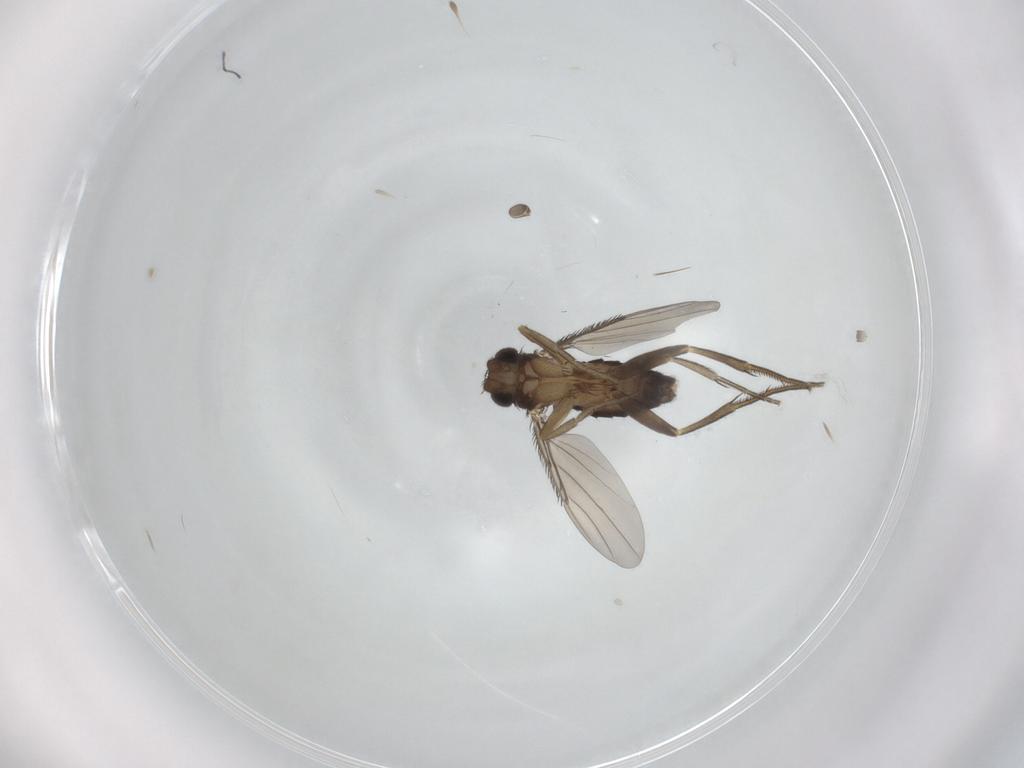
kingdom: Animalia
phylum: Arthropoda
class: Insecta
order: Diptera
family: Phoridae
